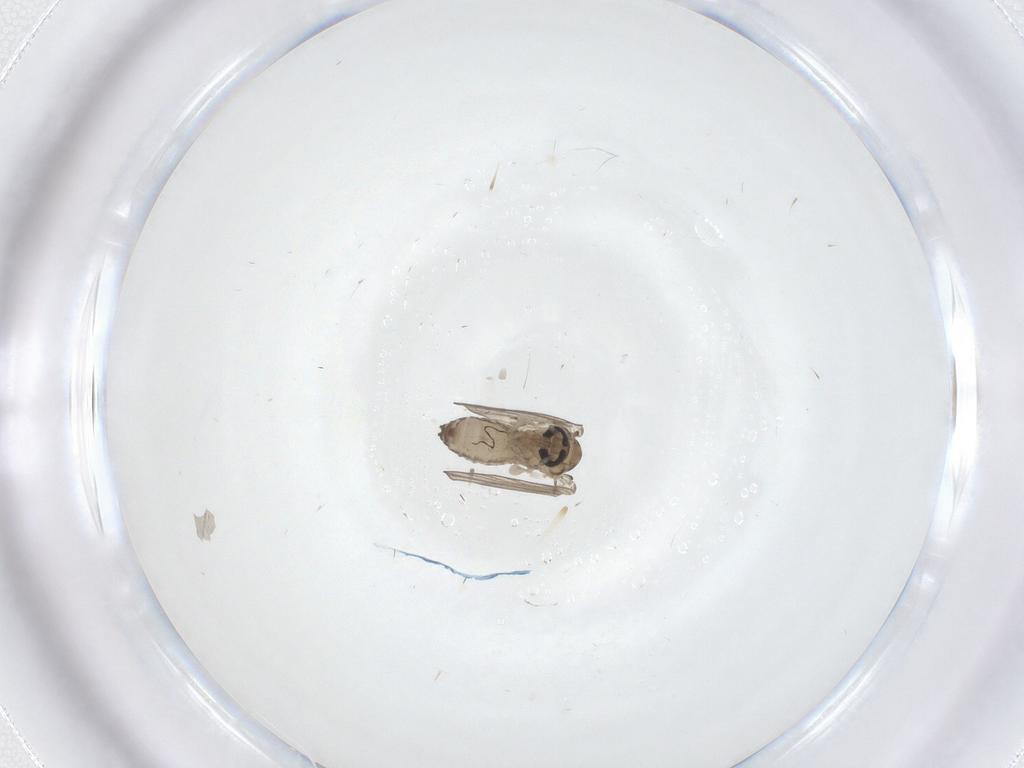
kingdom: Animalia
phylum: Arthropoda
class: Insecta
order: Diptera
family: Psychodidae
